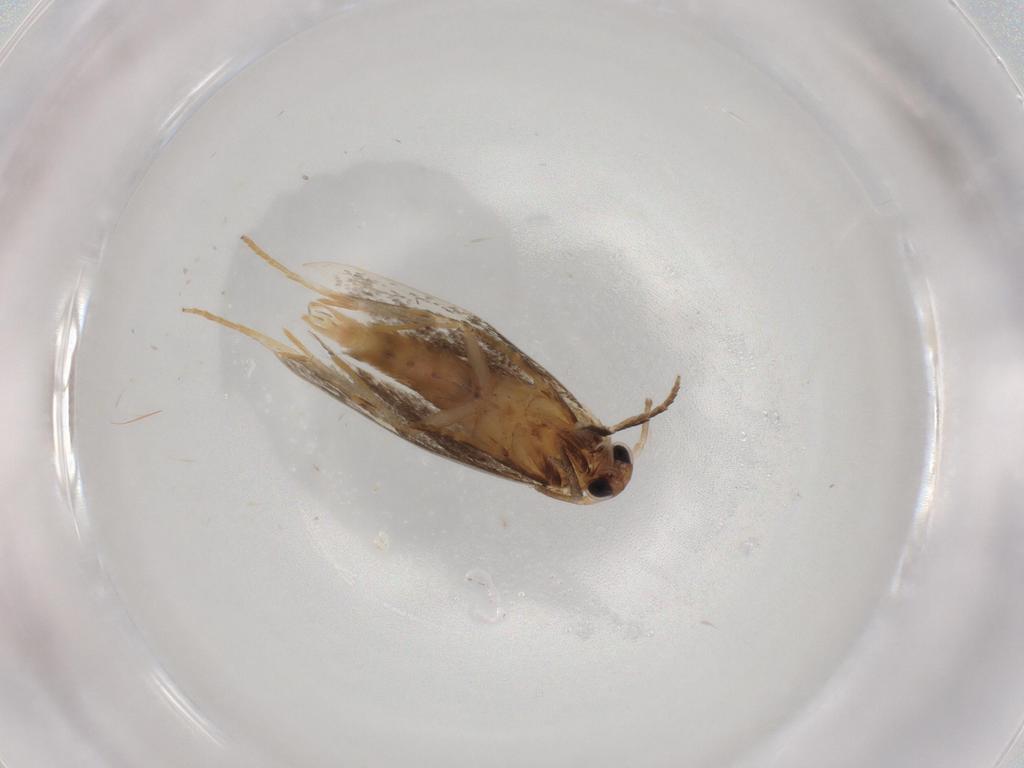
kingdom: Animalia
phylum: Arthropoda
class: Insecta
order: Lepidoptera
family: Elachistidae
